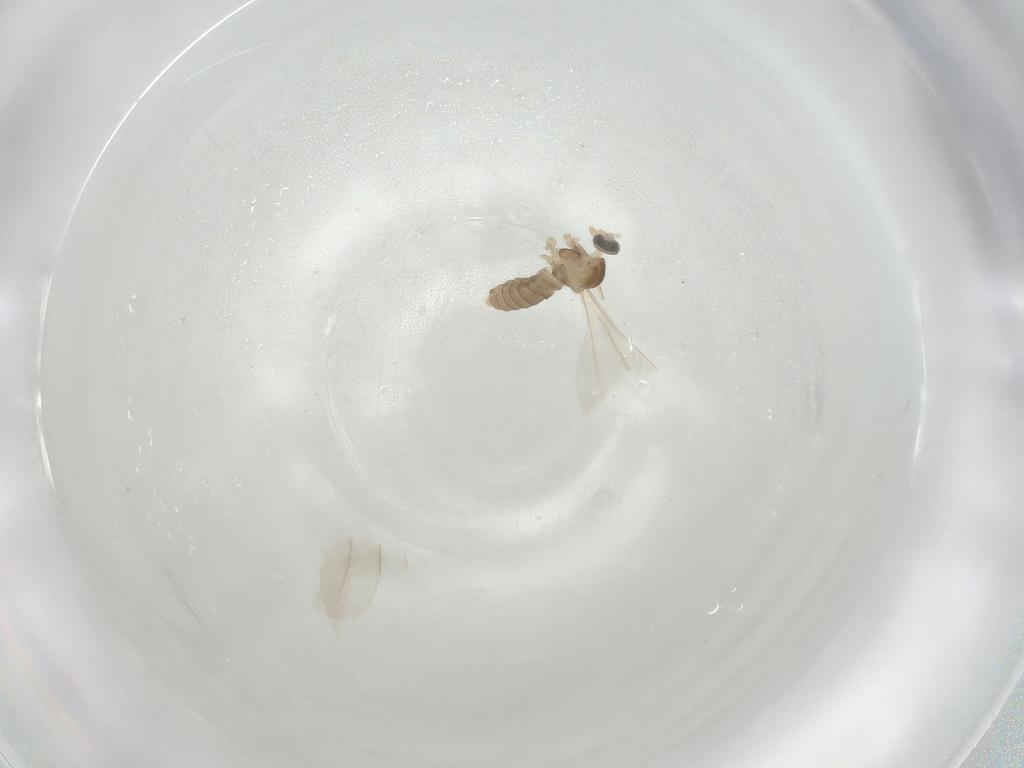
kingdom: Animalia
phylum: Arthropoda
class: Insecta
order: Diptera
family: Cecidomyiidae
